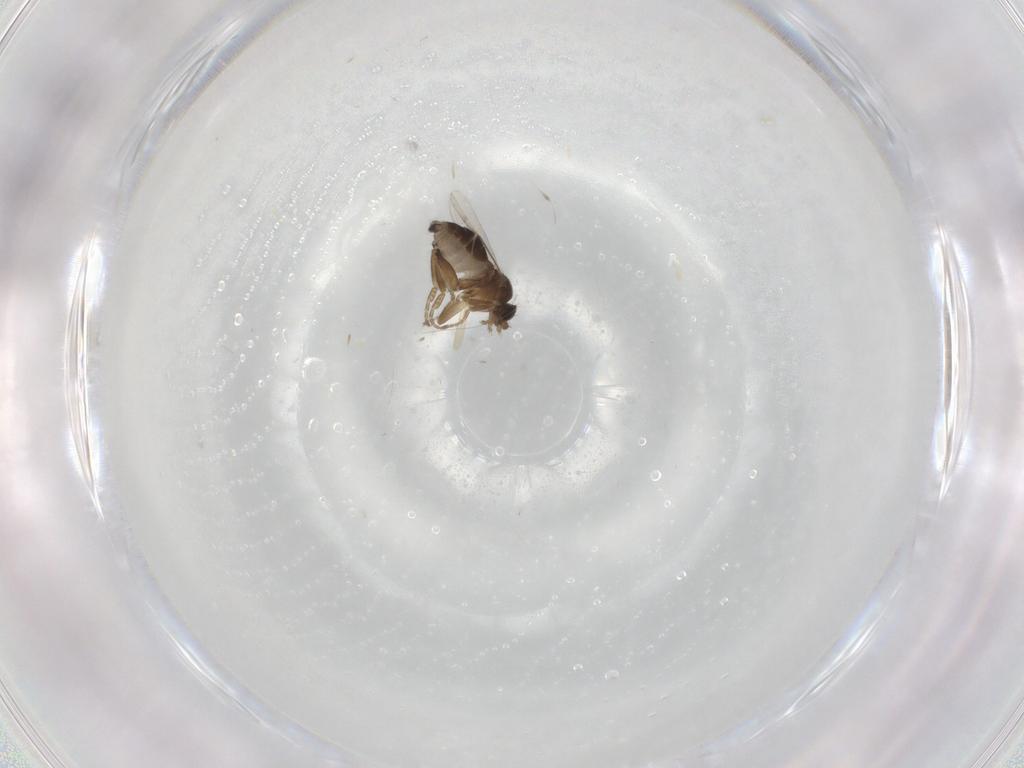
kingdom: Animalia
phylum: Arthropoda
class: Insecta
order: Diptera
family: Phoridae
